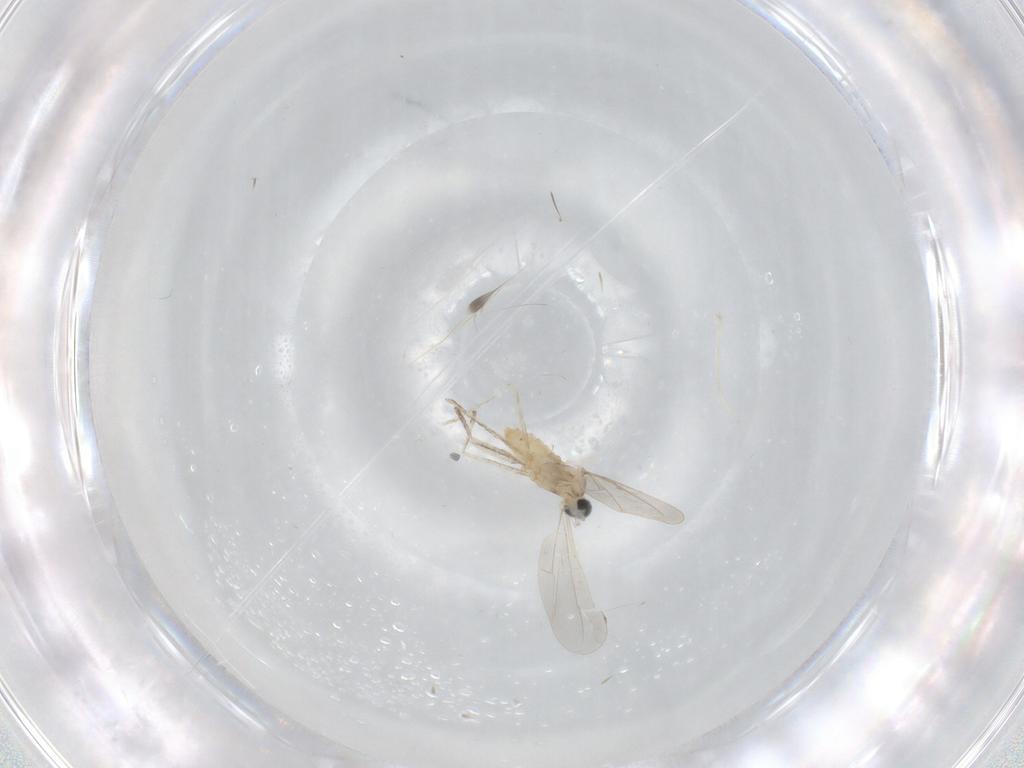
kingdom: Animalia
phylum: Arthropoda
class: Insecta
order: Diptera
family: Cecidomyiidae
